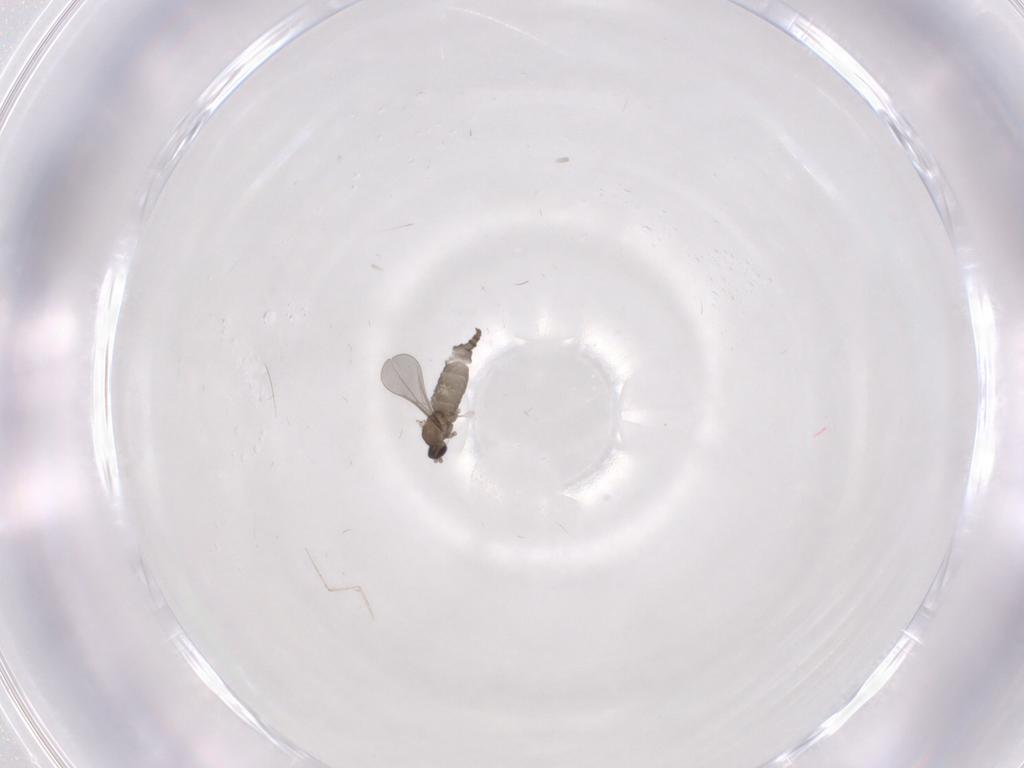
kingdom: Animalia
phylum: Arthropoda
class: Insecta
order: Diptera
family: Cecidomyiidae
